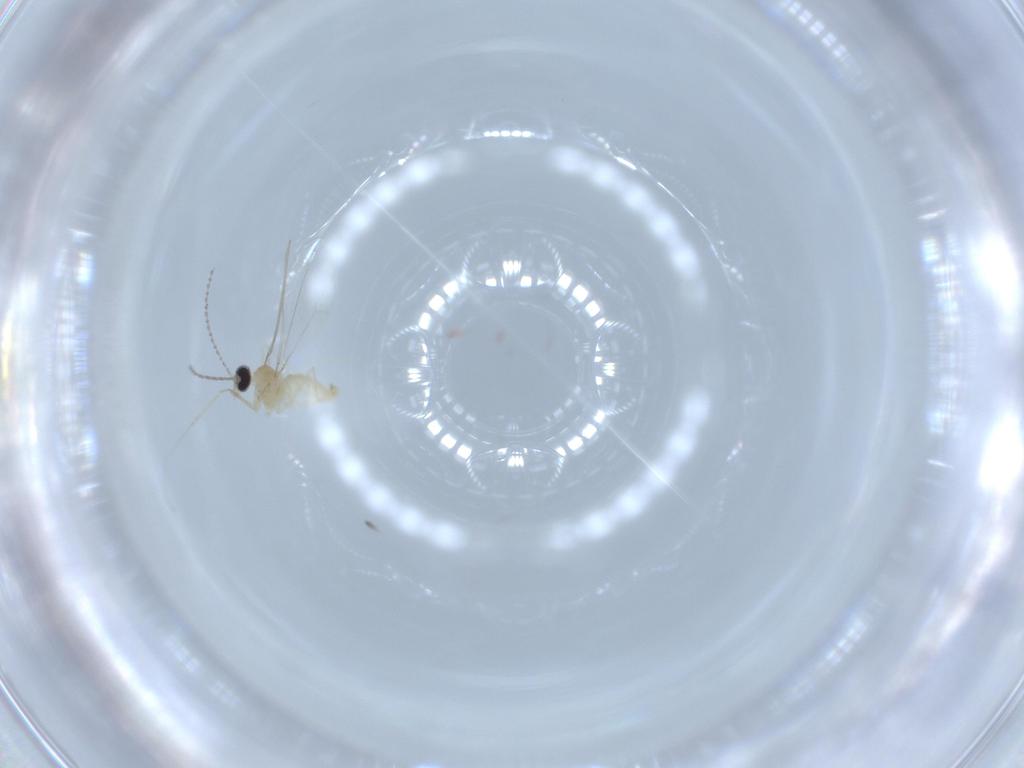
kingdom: Animalia
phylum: Arthropoda
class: Insecta
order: Diptera
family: Cecidomyiidae
